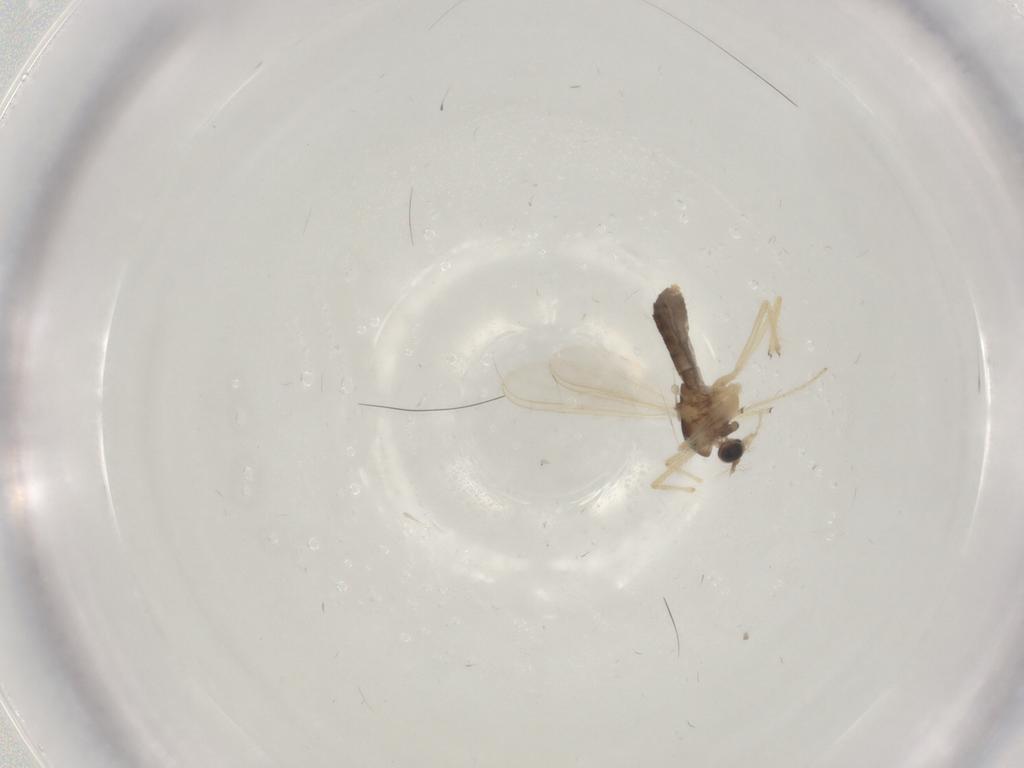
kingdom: Animalia
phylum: Arthropoda
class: Insecta
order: Diptera
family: Chironomidae
